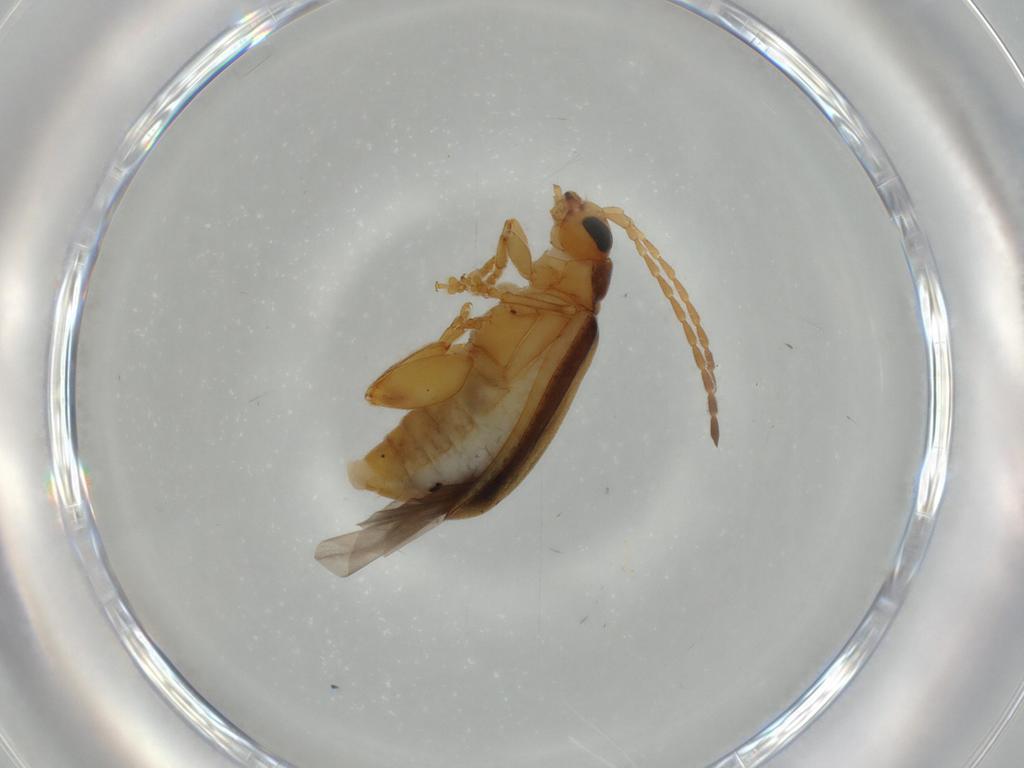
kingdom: Animalia
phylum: Arthropoda
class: Insecta
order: Coleoptera
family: Chrysomelidae
